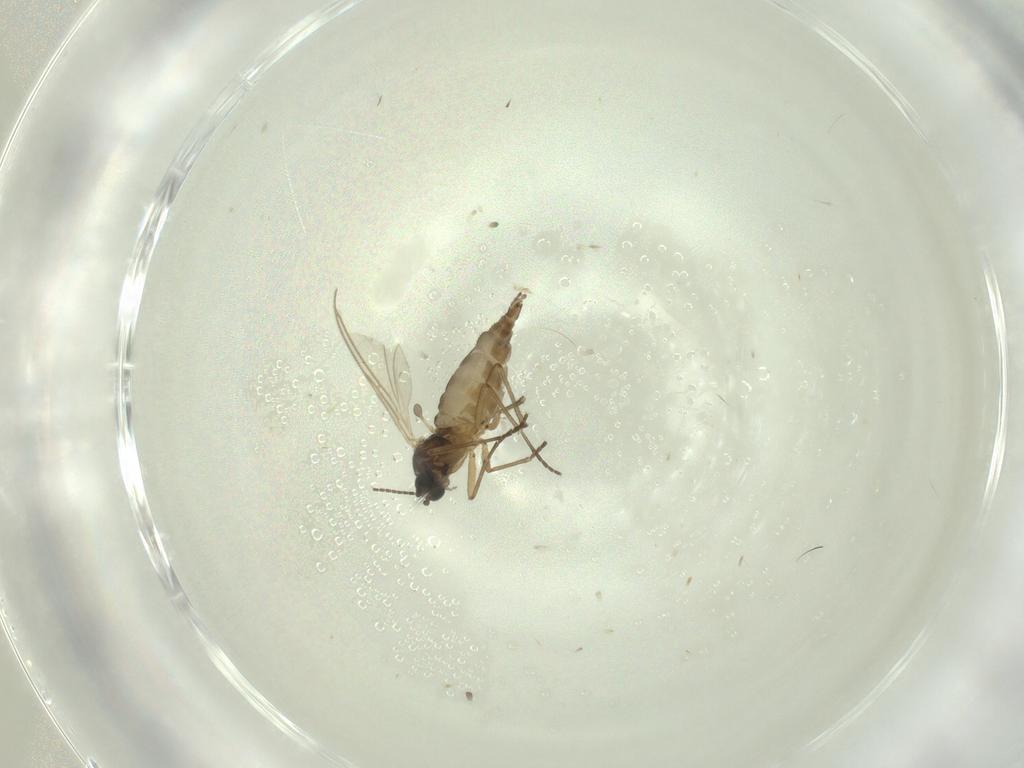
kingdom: Animalia
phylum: Arthropoda
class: Insecta
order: Diptera
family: Sciaridae
